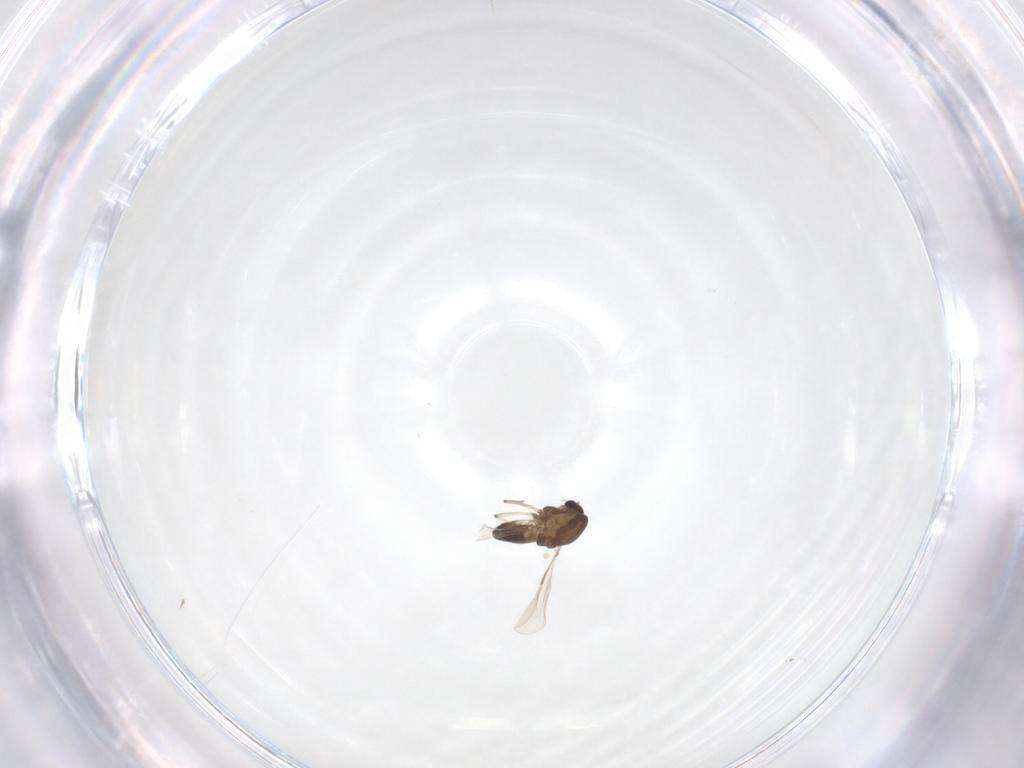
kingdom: Animalia
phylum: Arthropoda
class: Insecta
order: Diptera
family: Chironomidae
